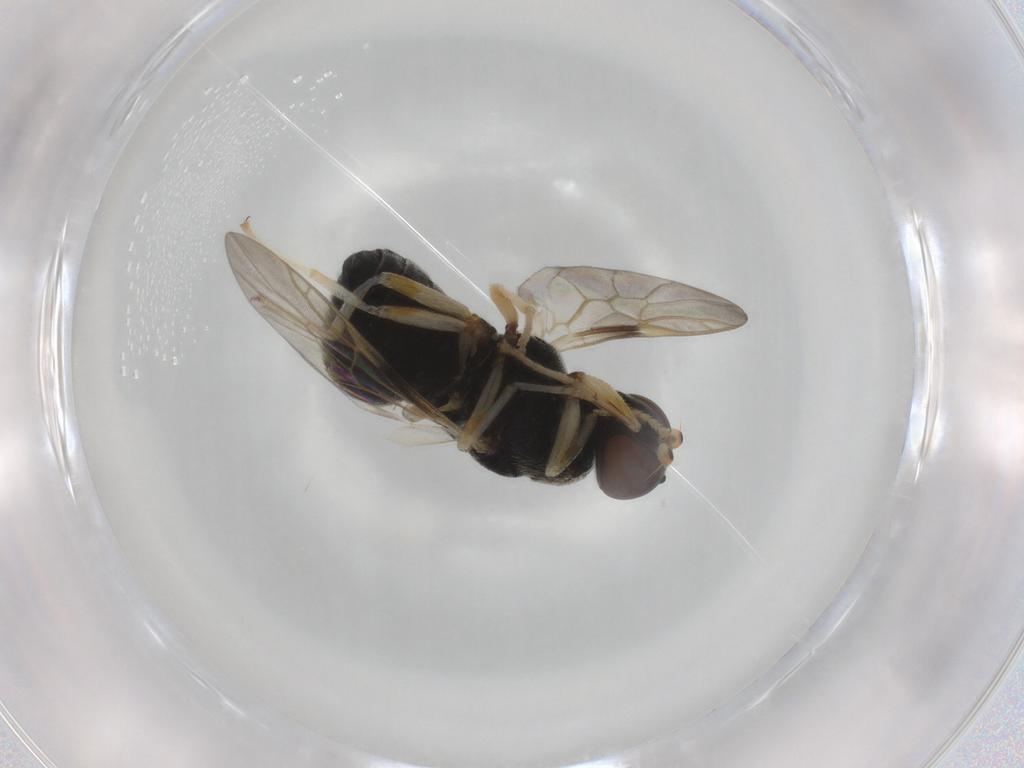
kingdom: Animalia
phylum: Arthropoda
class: Insecta
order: Diptera
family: Stratiomyidae
